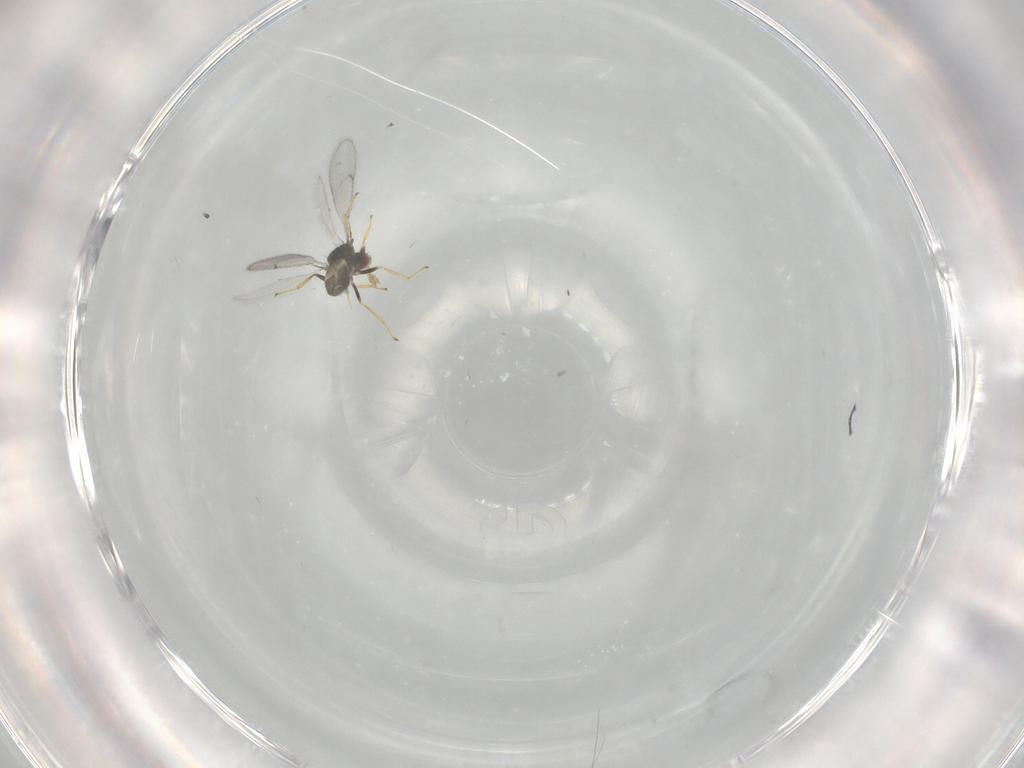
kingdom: Animalia
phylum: Arthropoda
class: Insecta
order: Hymenoptera
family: Eulophidae
